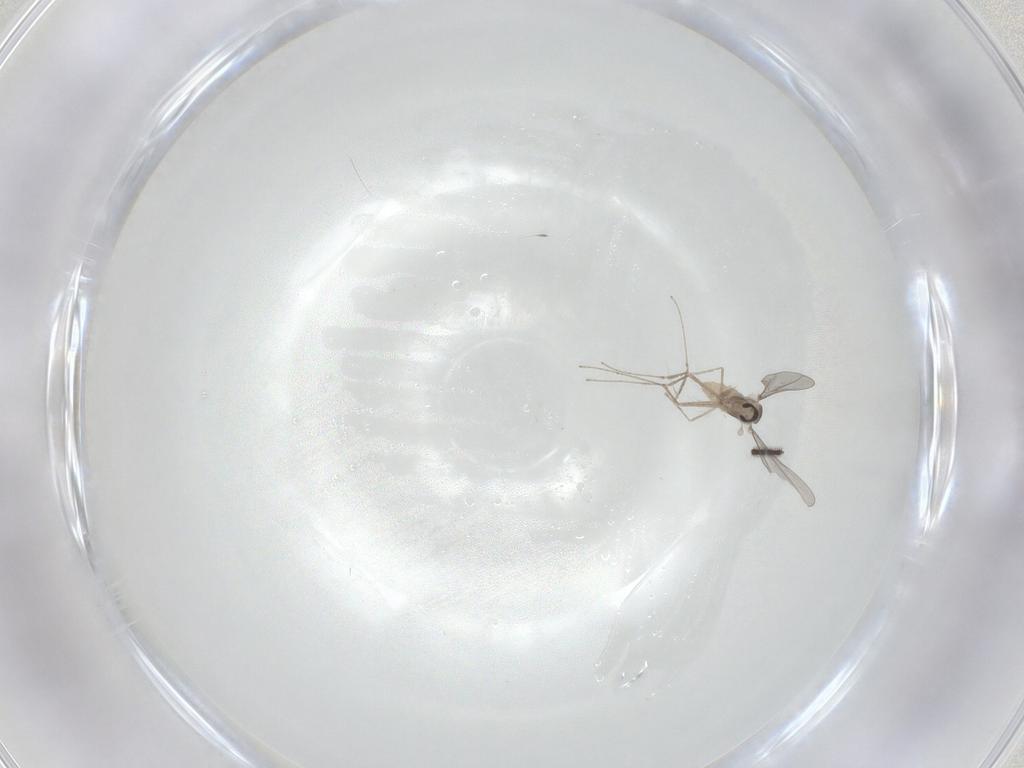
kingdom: Animalia
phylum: Arthropoda
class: Insecta
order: Diptera
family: Sciaridae
